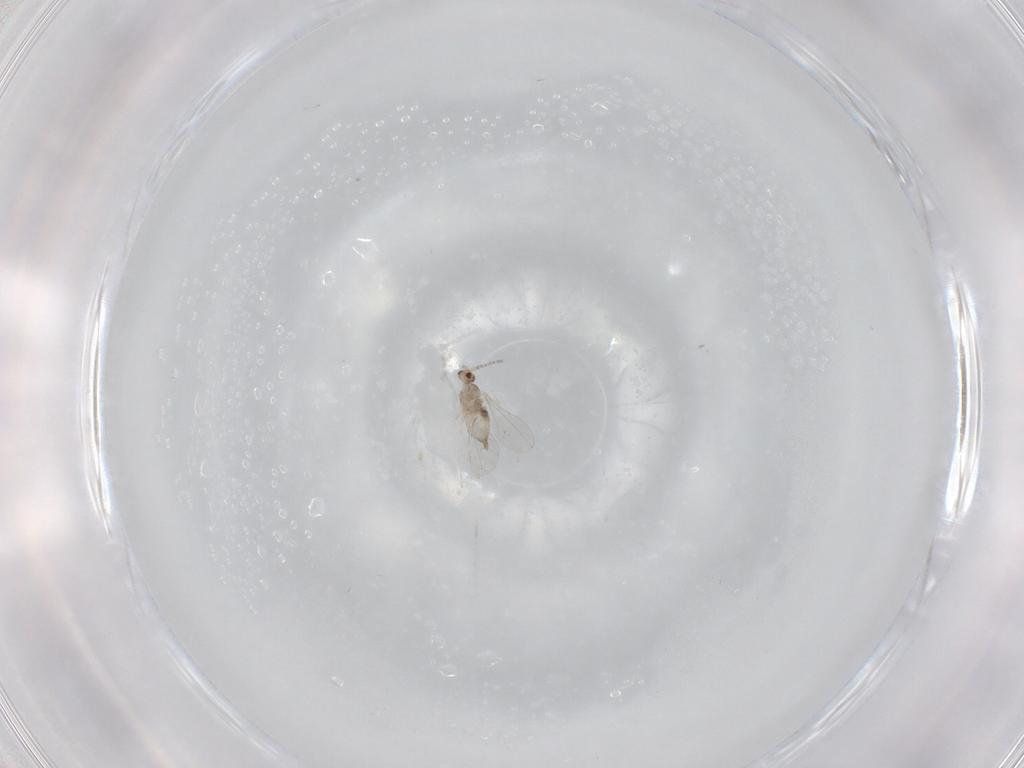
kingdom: Animalia
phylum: Arthropoda
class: Insecta
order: Diptera
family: Cecidomyiidae
